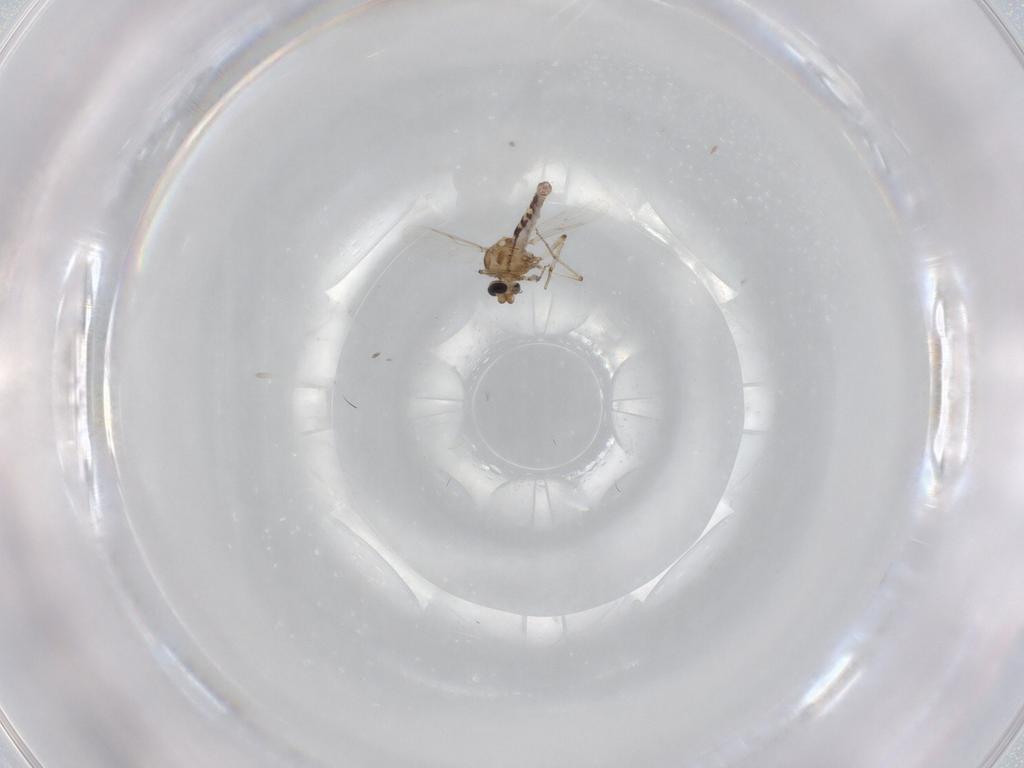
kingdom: Animalia
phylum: Arthropoda
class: Insecta
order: Diptera
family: Ceratopogonidae
